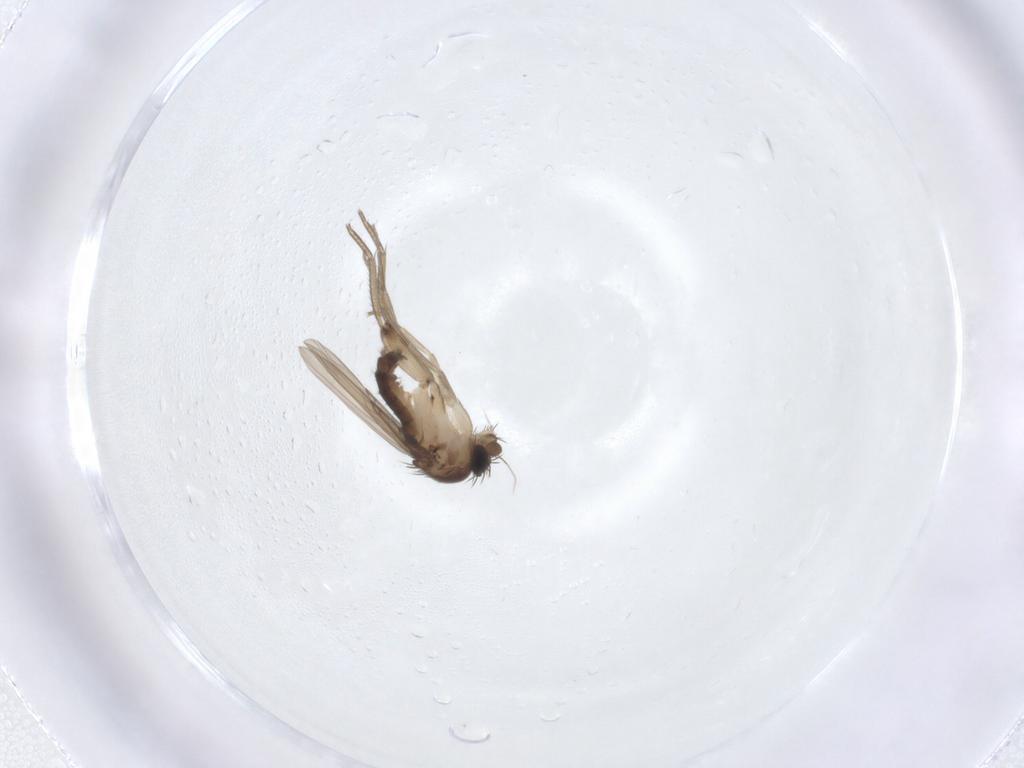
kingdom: Animalia
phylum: Arthropoda
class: Insecta
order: Diptera
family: Phoridae
